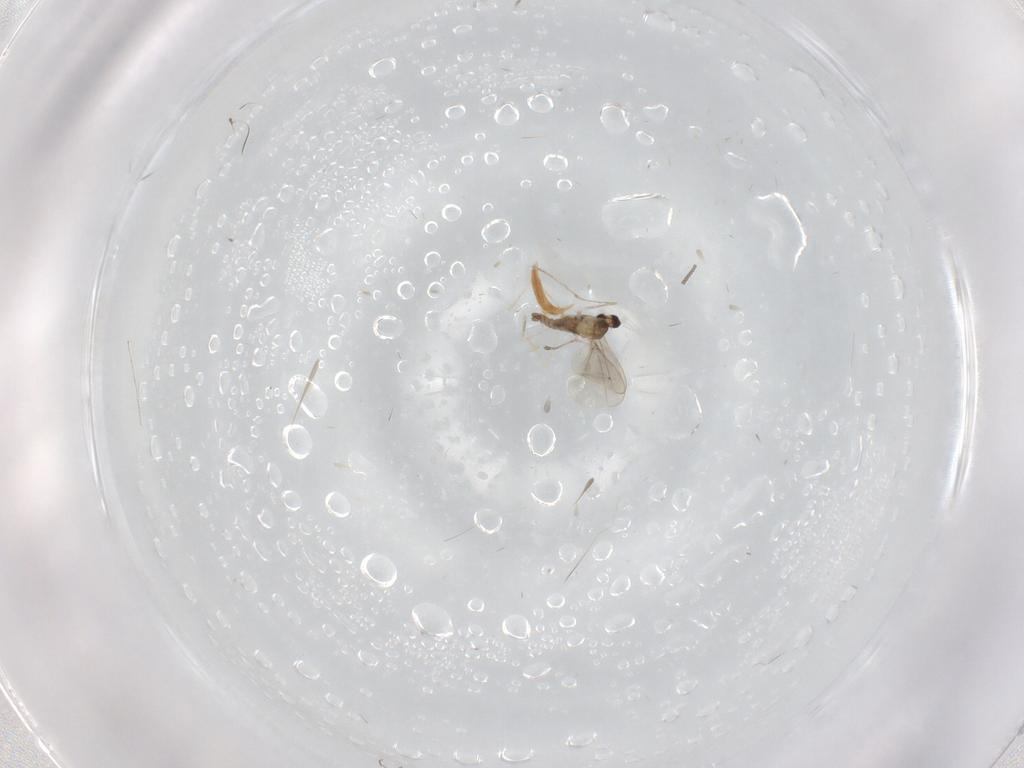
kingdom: Animalia
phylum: Arthropoda
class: Insecta
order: Diptera
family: Cecidomyiidae
